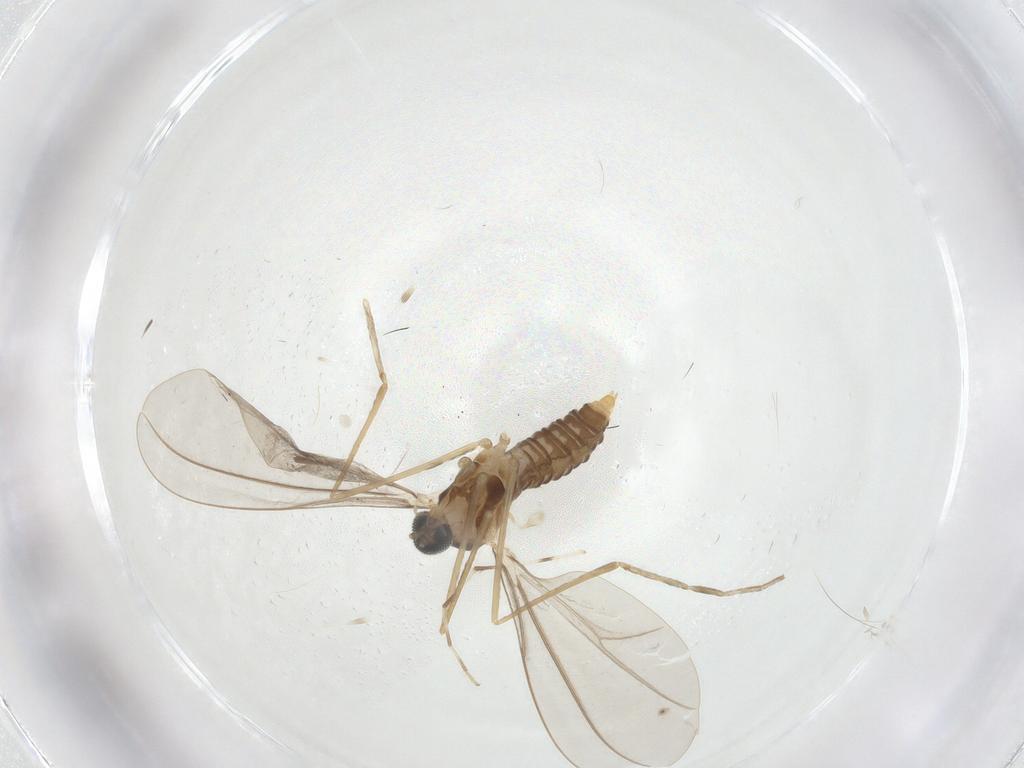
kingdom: Animalia
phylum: Arthropoda
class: Insecta
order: Diptera
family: Cecidomyiidae
